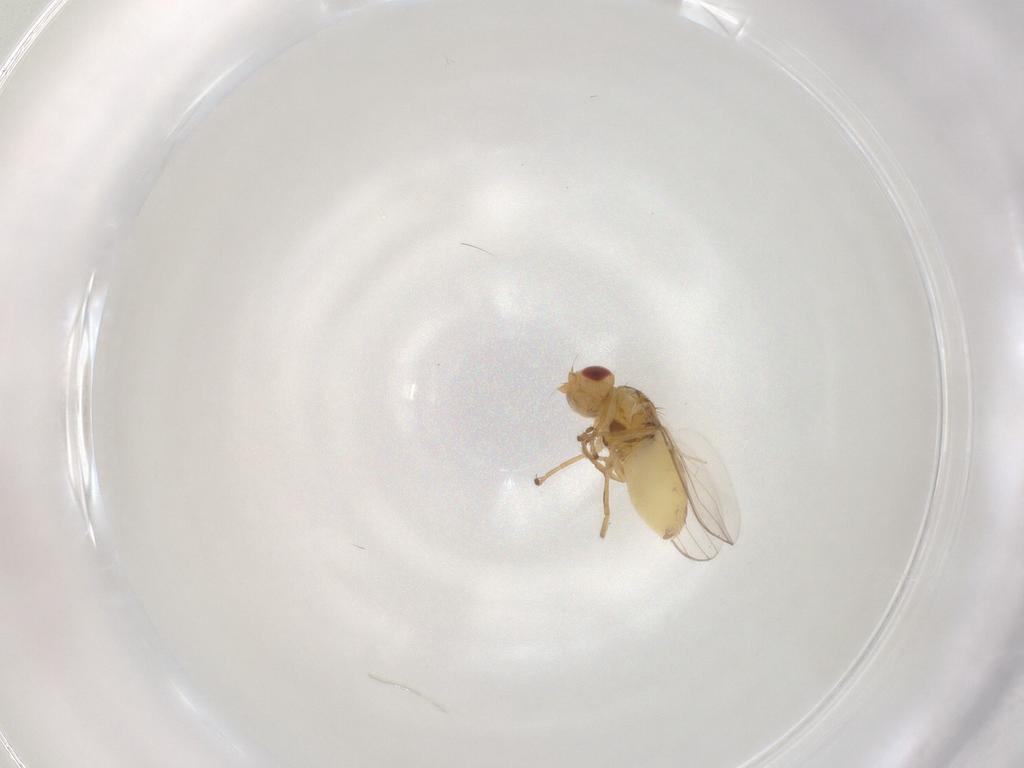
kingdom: Animalia
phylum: Arthropoda
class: Insecta
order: Diptera
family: Chloropidae
